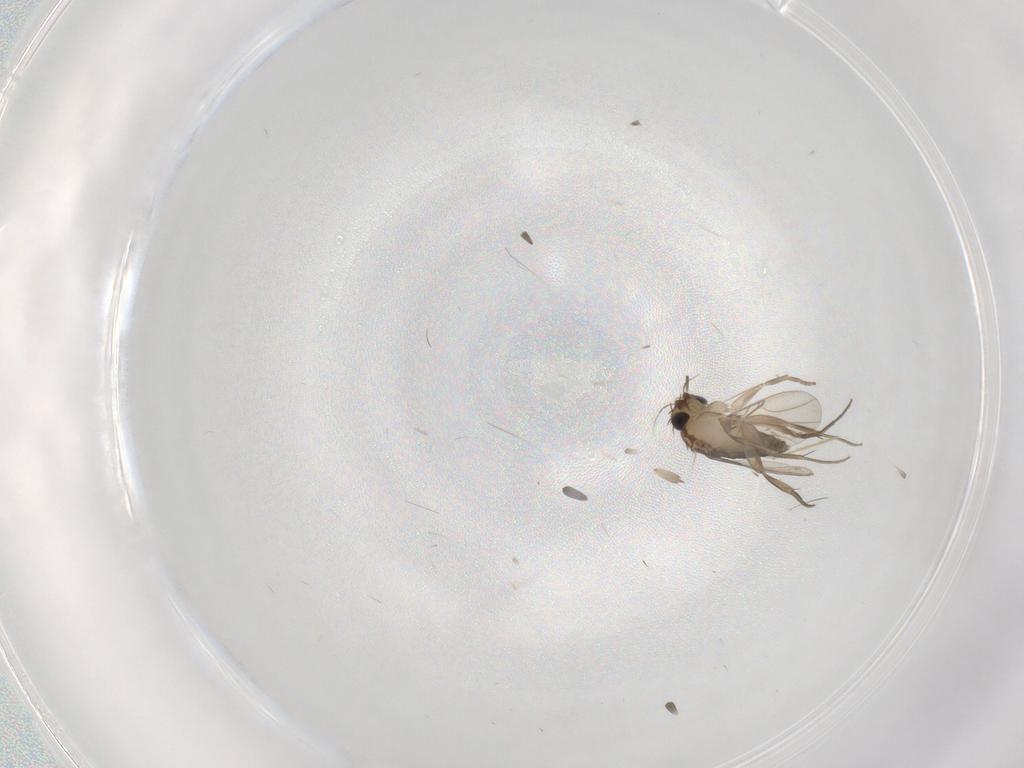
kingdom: Animalia
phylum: Arthropoda
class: Insecta
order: Diptera
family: Phoridae
